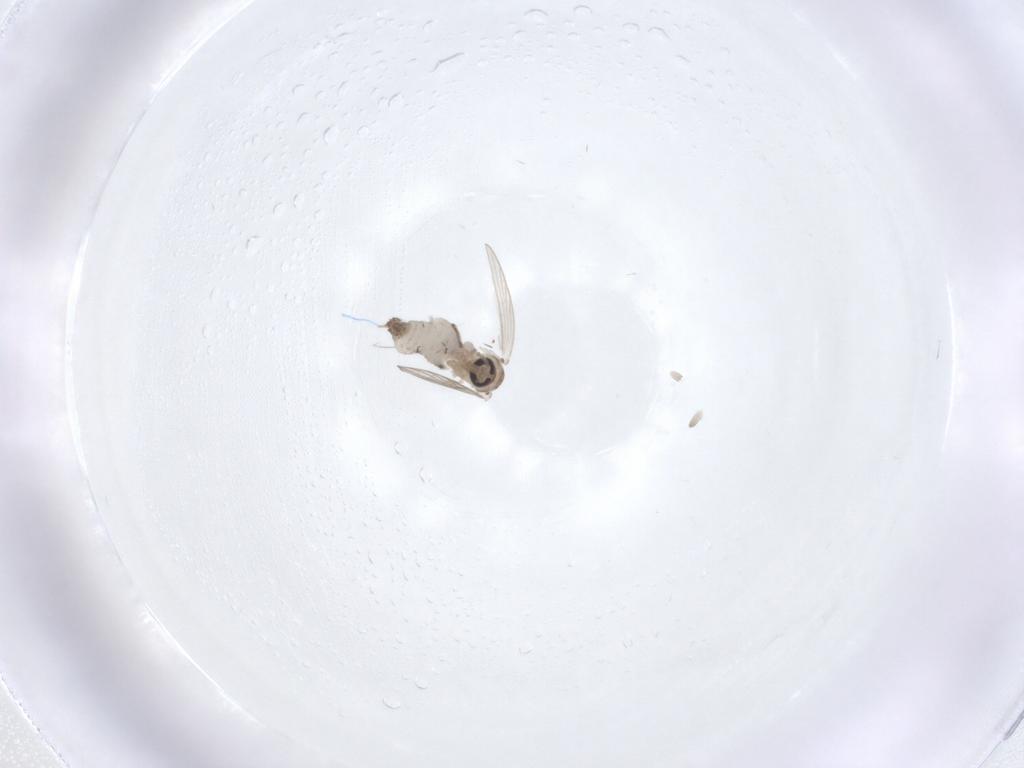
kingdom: Animalia
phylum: Arthropoda
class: Insecta
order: Diptera
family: Psychodidae
